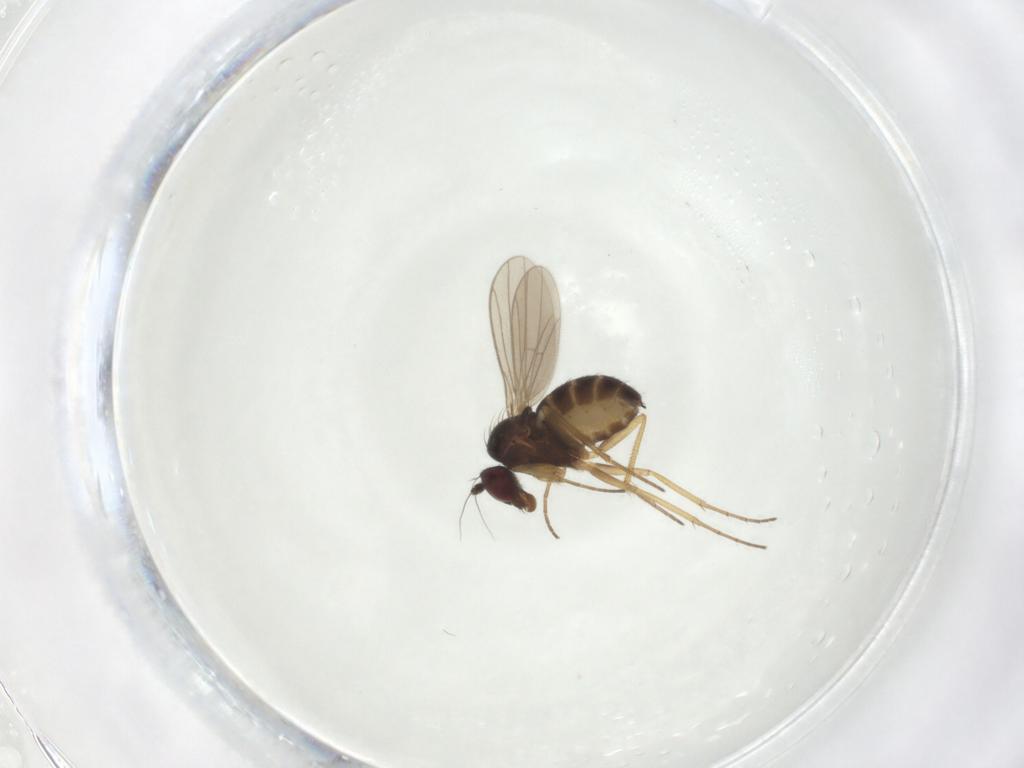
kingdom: Animalia
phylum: Arthropoda
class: Insecta
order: Diptera
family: Dolichopodidae
